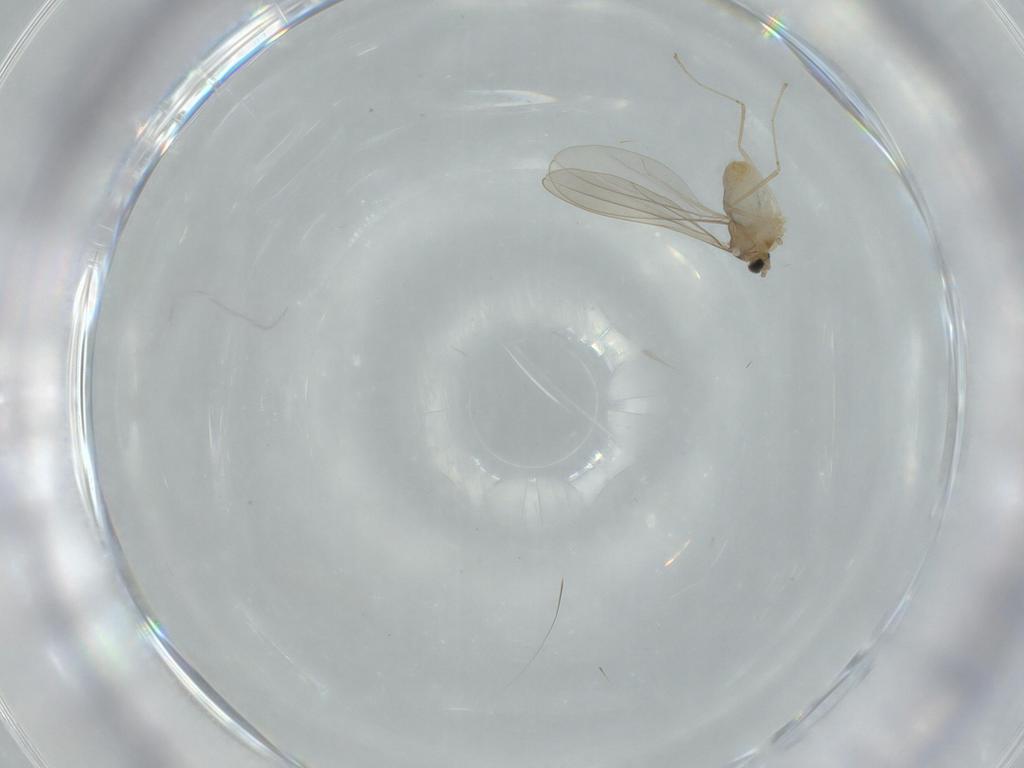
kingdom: Animalia
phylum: Arthropoda
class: Insecta
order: Diptera
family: Cecidomyiidae
